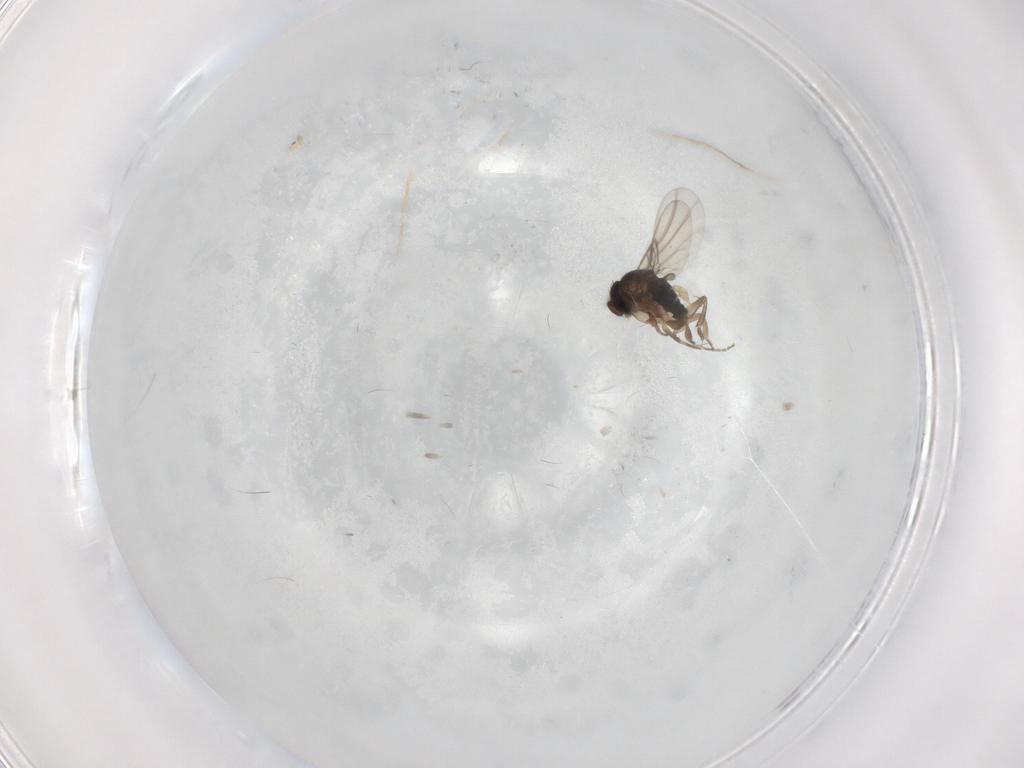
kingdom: Animalia
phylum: Arthropoda
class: Insecta
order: Diptera
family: Phoridae
